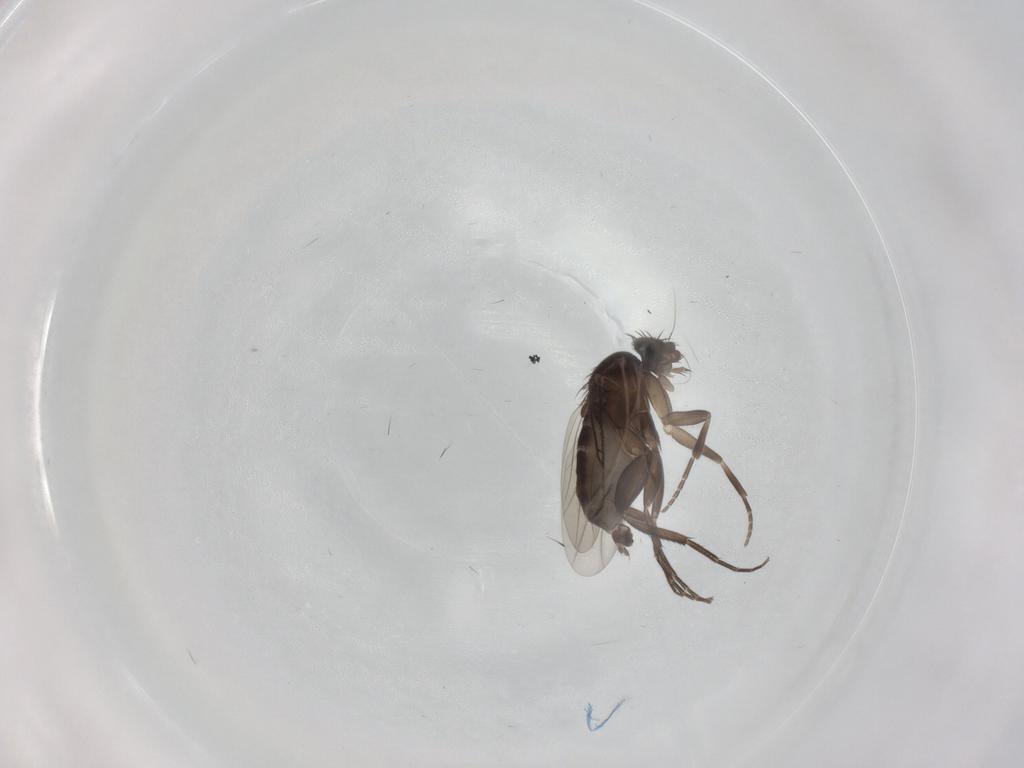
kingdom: Animalia
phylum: Arthropoda
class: Insecta
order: Diptera
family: Phoridae
